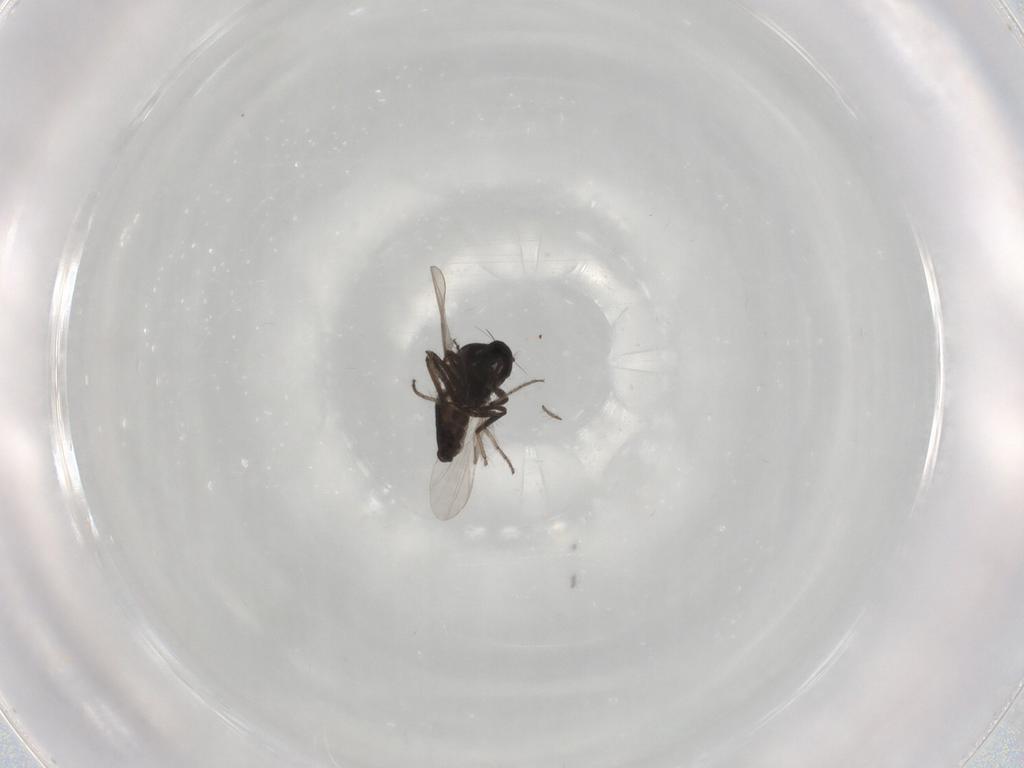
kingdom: Animalia
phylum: Arthropoda
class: Insecta
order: Diptera
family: Ceratopogonidae
